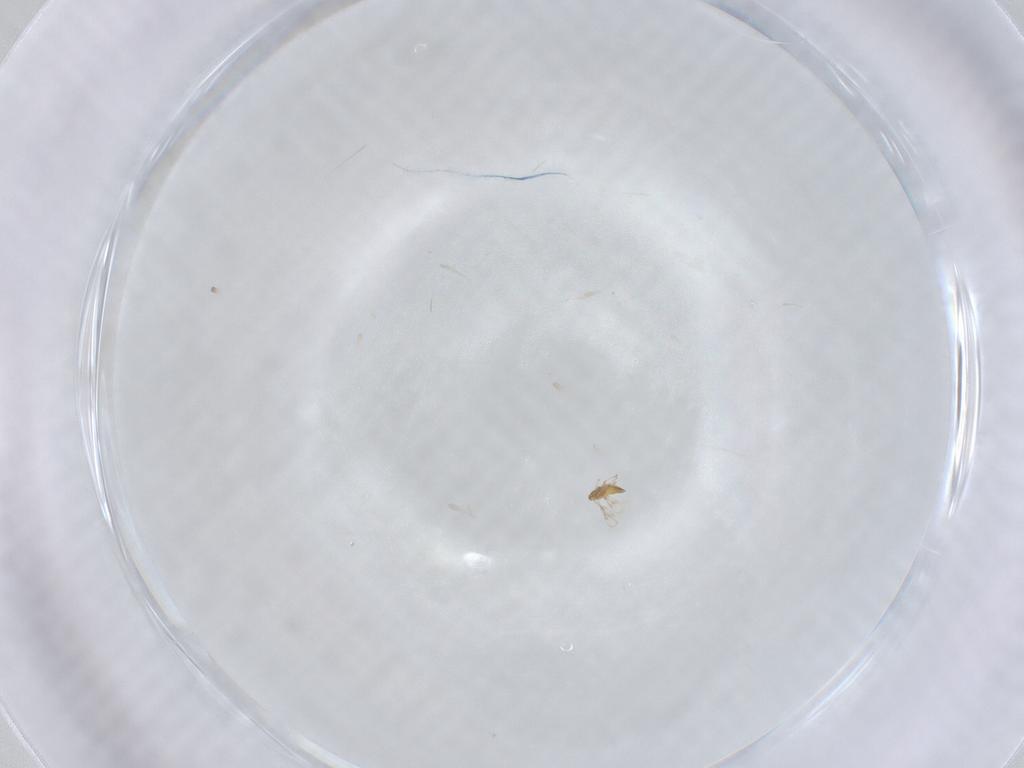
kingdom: Animalia
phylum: Arthropoda
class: Insecta
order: Hymenoptera
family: Trichogrammatidae
